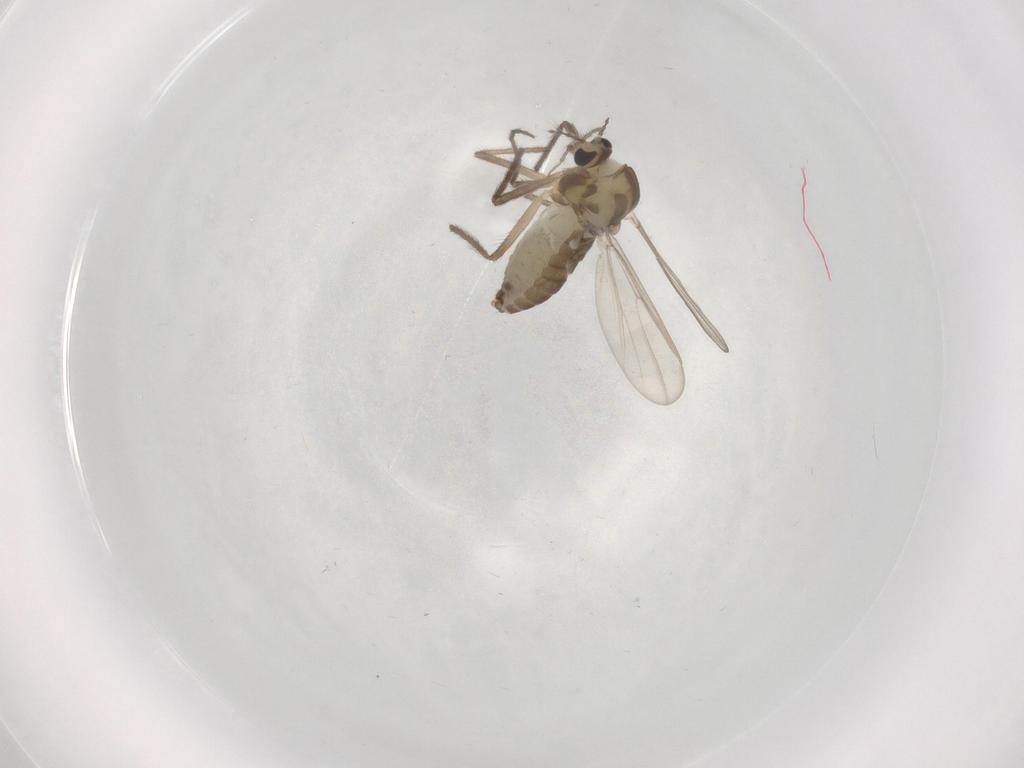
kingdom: Animalia
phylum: Arthropoda
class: Insecta
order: Diptera
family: Chironomidae
